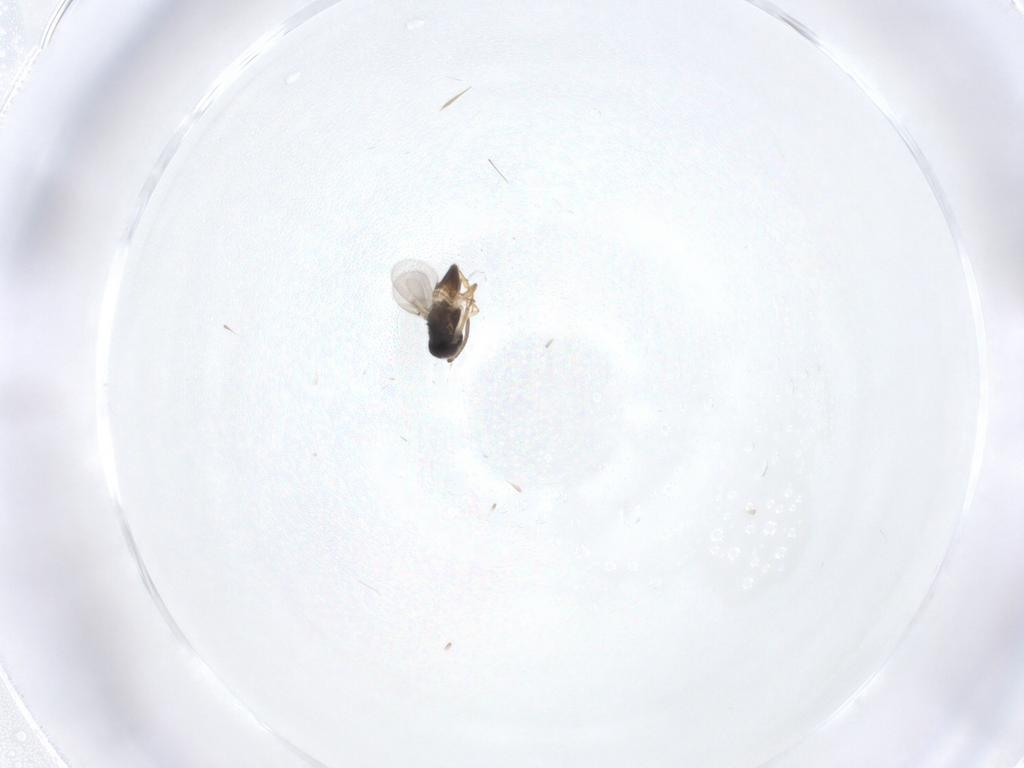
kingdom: Animalia
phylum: Arthropoda
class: Insecta
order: Hymenoptera
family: Encyrtidae
